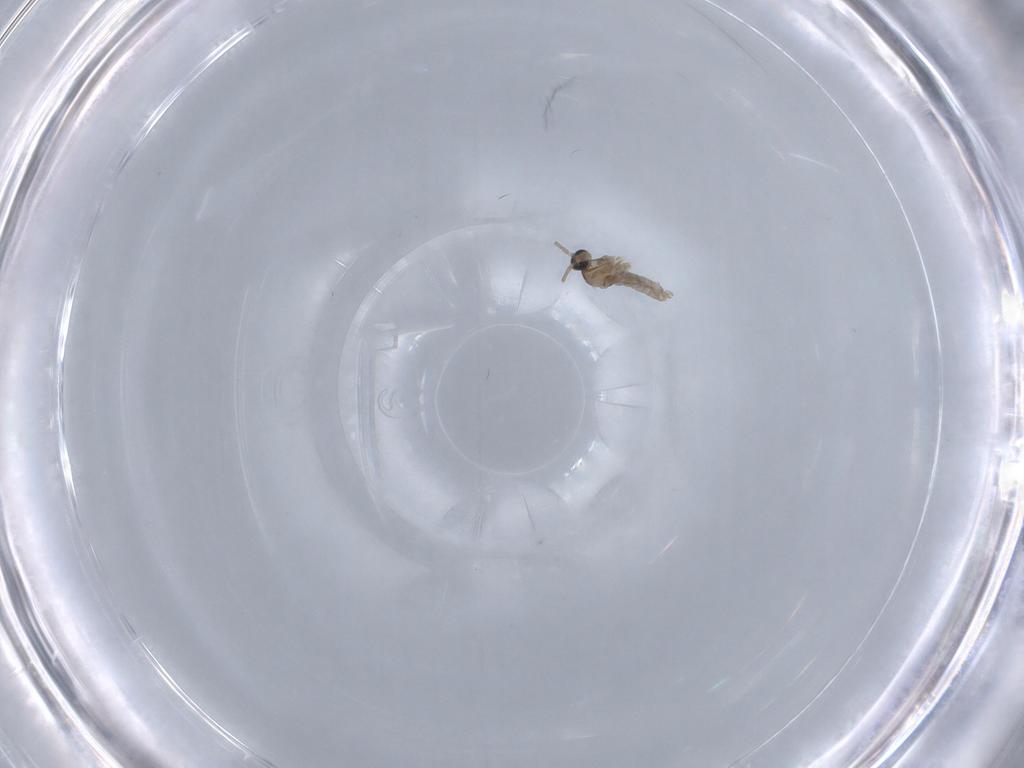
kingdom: Animalia
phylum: Arthropoda
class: Insecta
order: Diptera
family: Cecidomyiidae
